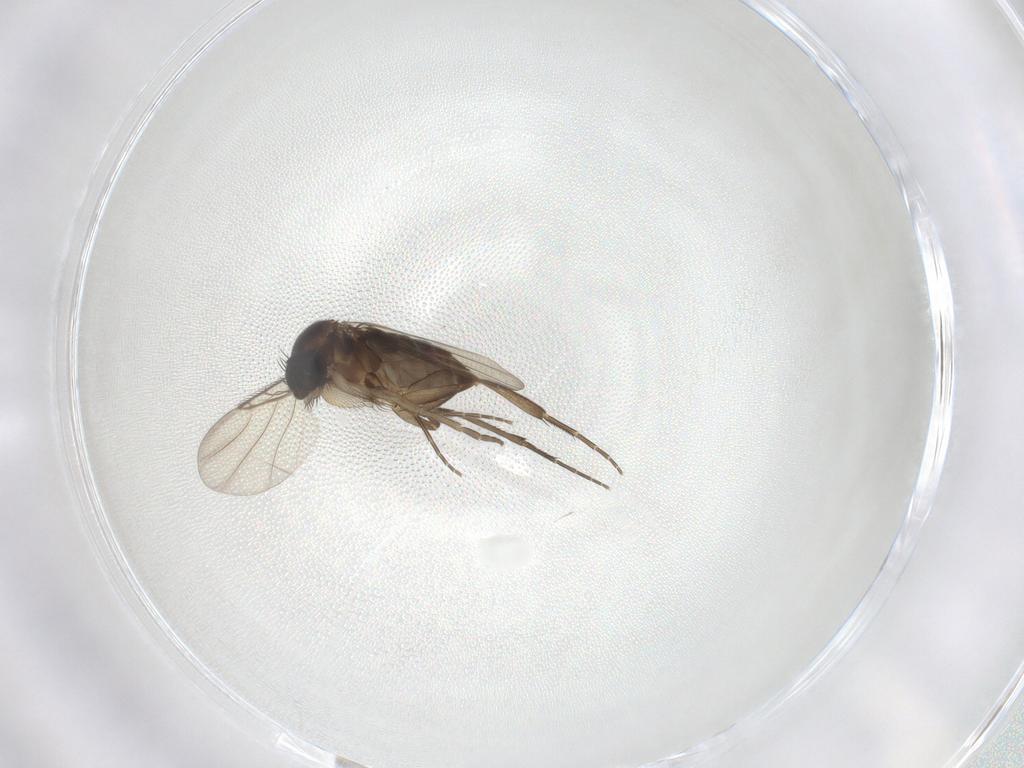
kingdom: Animalia
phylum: Arthropoda
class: Insecta
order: Diptera
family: Phoridae
